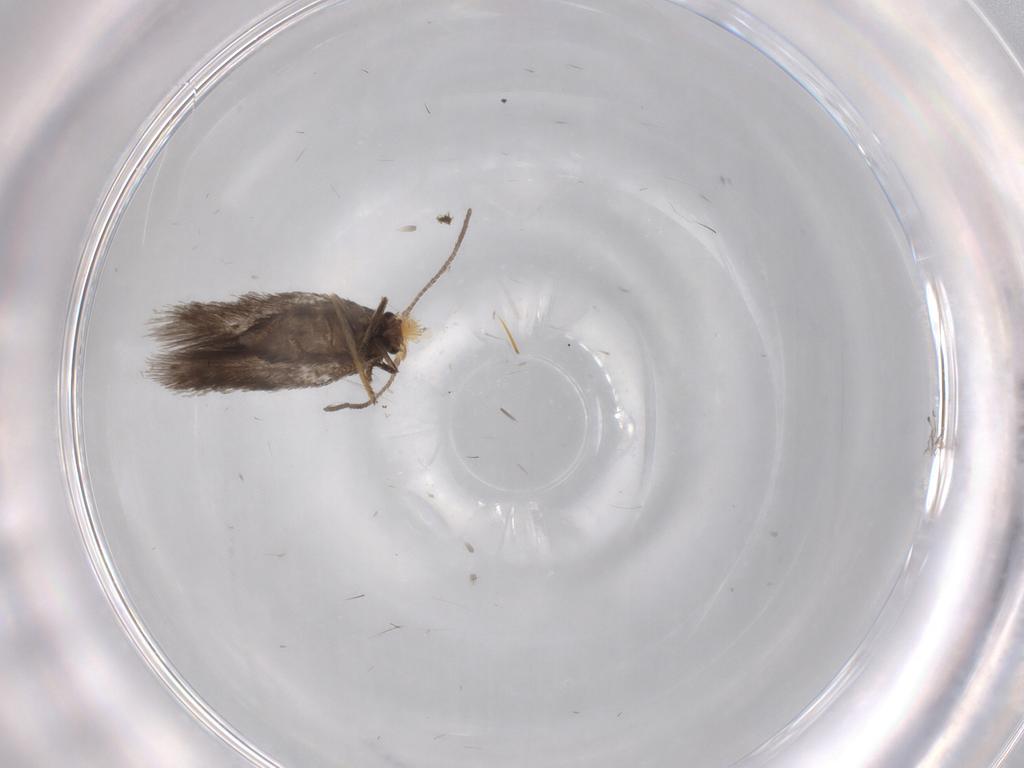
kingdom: Animalia
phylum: Arthropoda
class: Insecta
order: Lepidoptera
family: Nepticulidae
